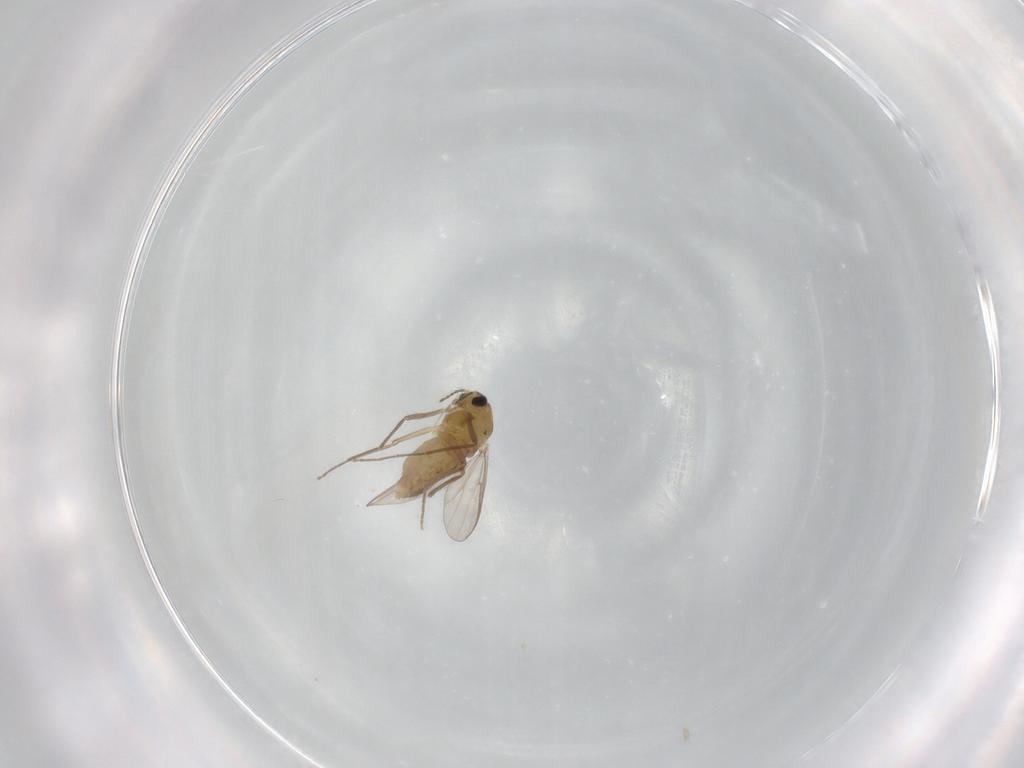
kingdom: Animalia
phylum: Arthropoda
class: Insecta
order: Diptera
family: Chironomidae
